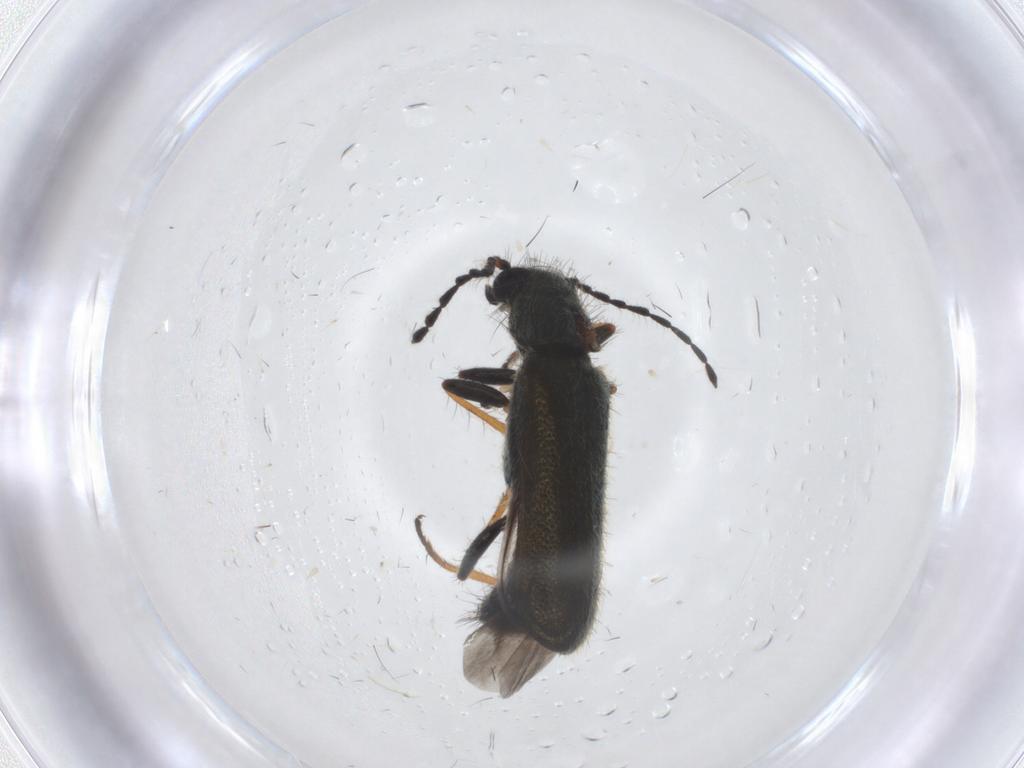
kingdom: Animalia
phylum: Arthropoda
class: Insecta
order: Coleoptera
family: Melyridae
